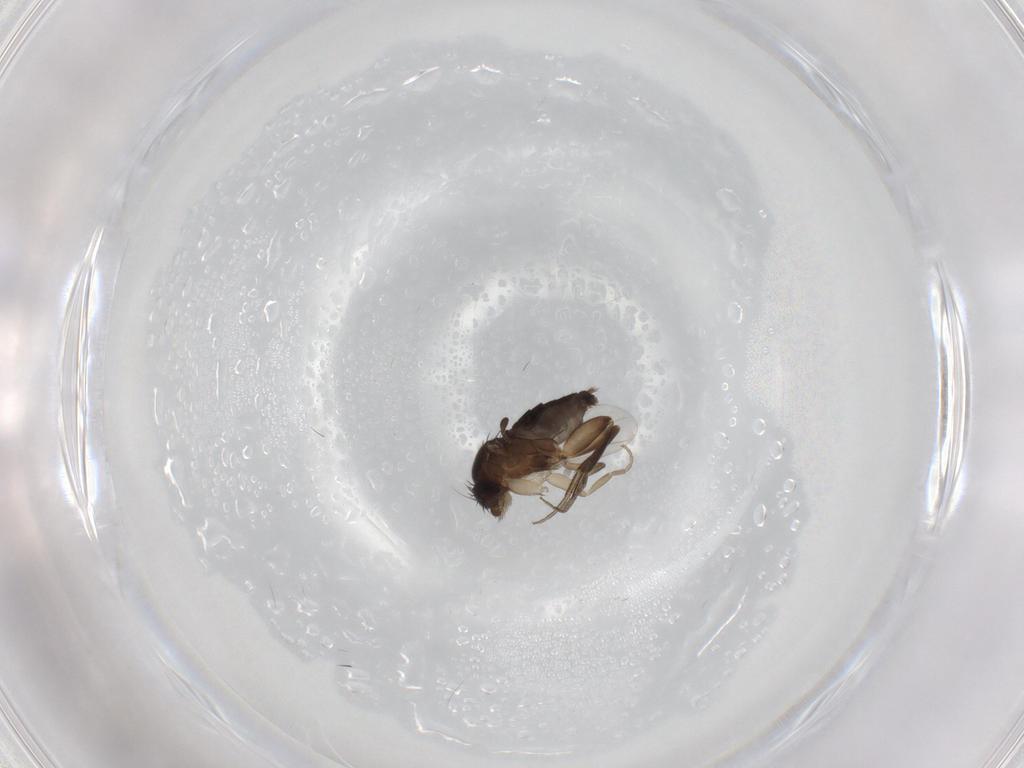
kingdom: Animalia
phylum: Arthropoda
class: Insecta
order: Diptera
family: Phoridae
